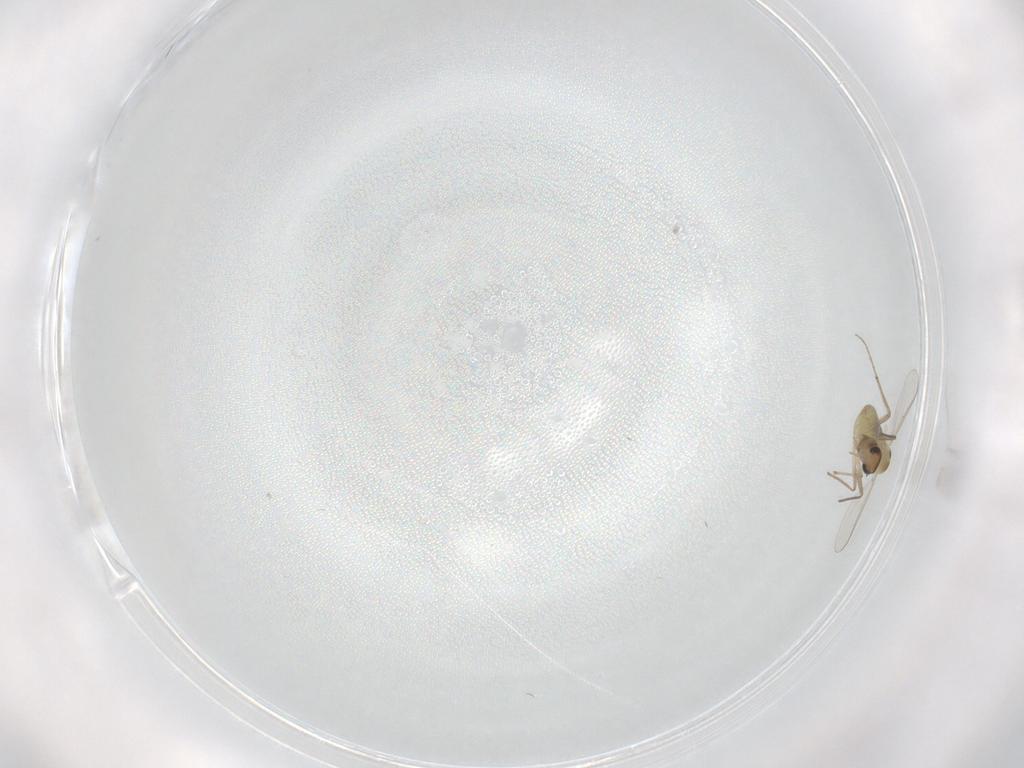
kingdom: Animalia
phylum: Arthropoda
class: Insecta
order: Diptera
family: Chironomidae
